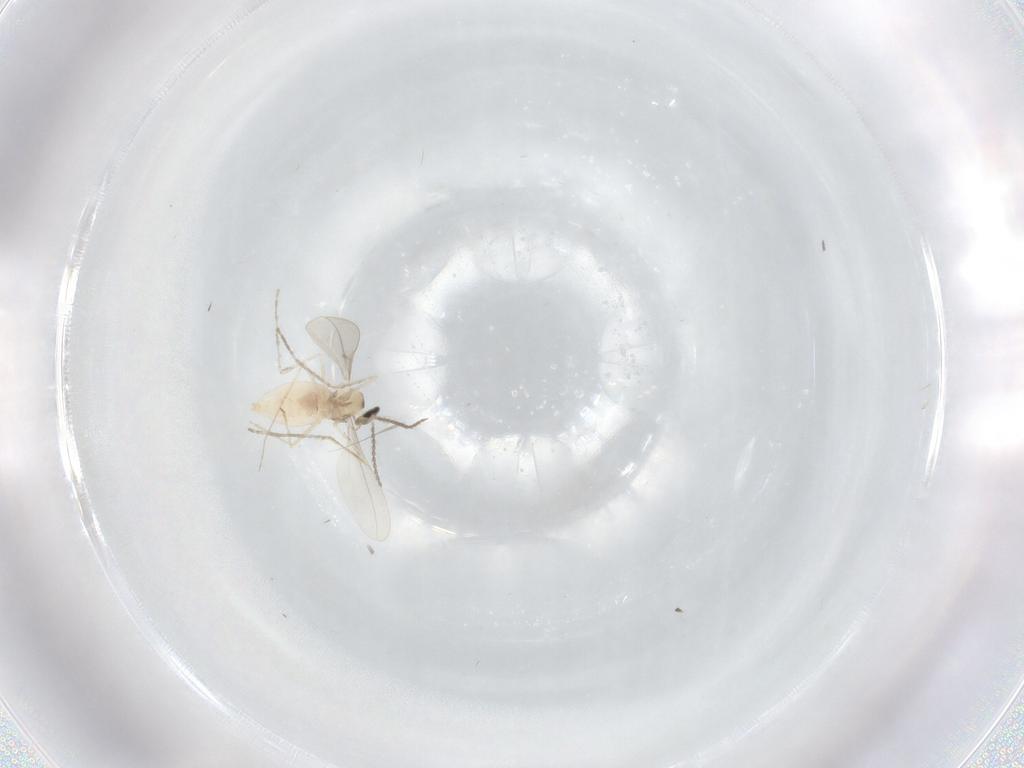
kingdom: Animalia
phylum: Arthropoda
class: Insecta
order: Diptera
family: Cecidomyiidae
